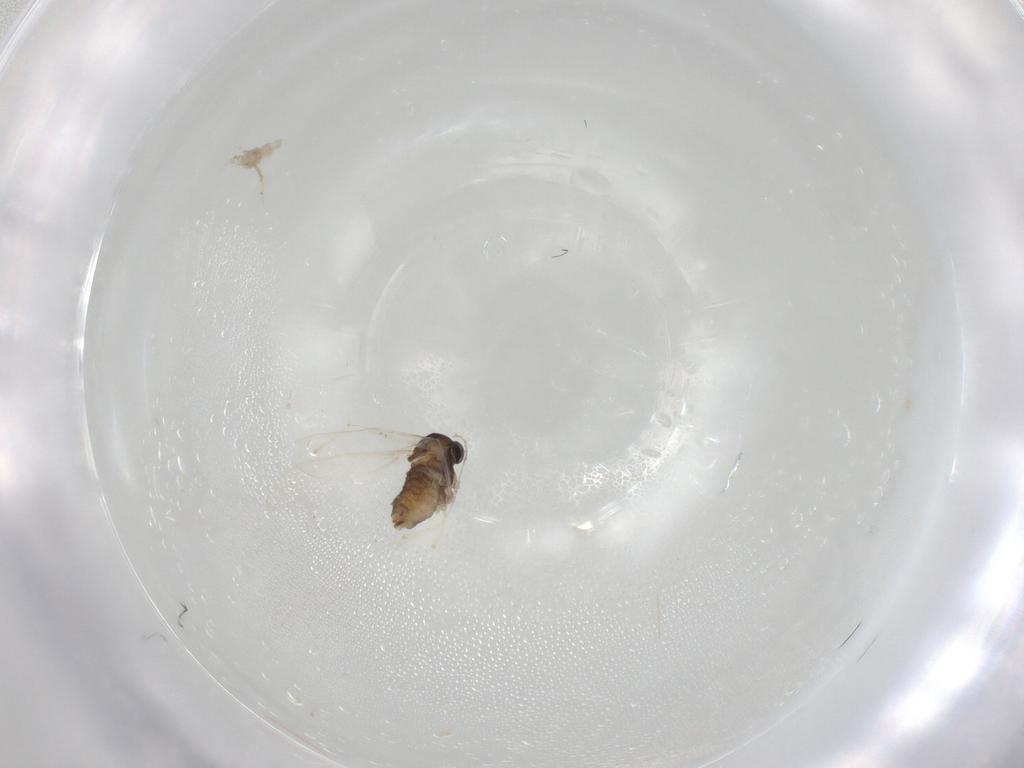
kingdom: Animalia
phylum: Arthropoda
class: Insecta
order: Diptera
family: Cecidomyiidae
